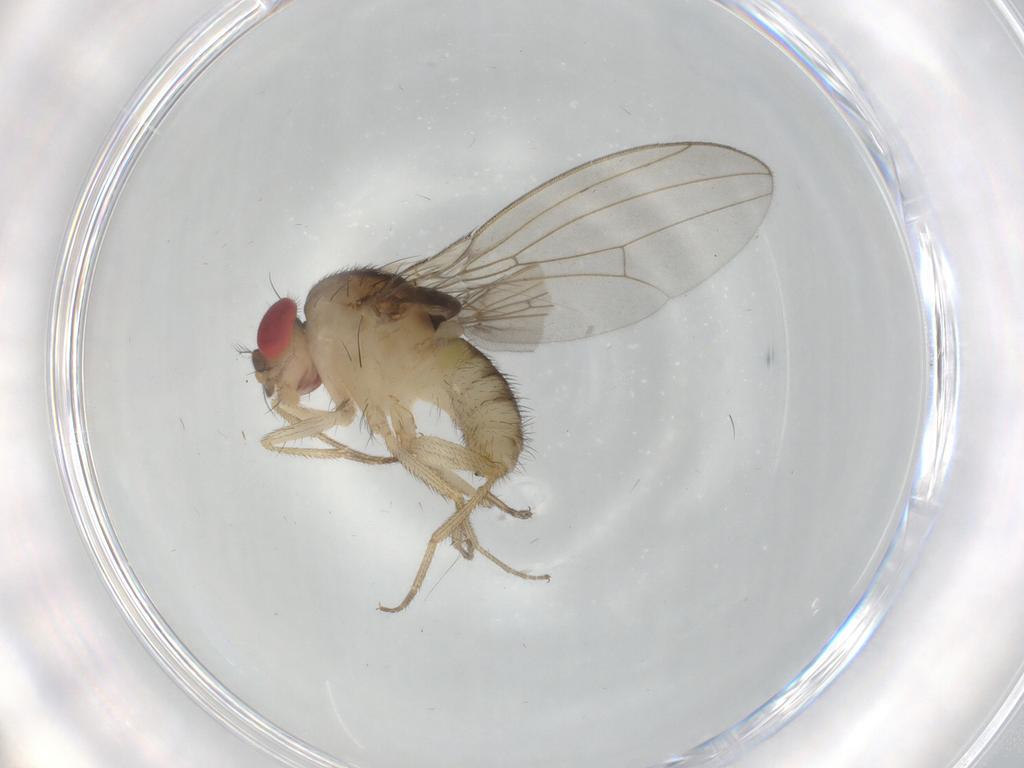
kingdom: Animalia
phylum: Arthropoda
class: Insecta
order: Diptera
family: Drosophilidae
